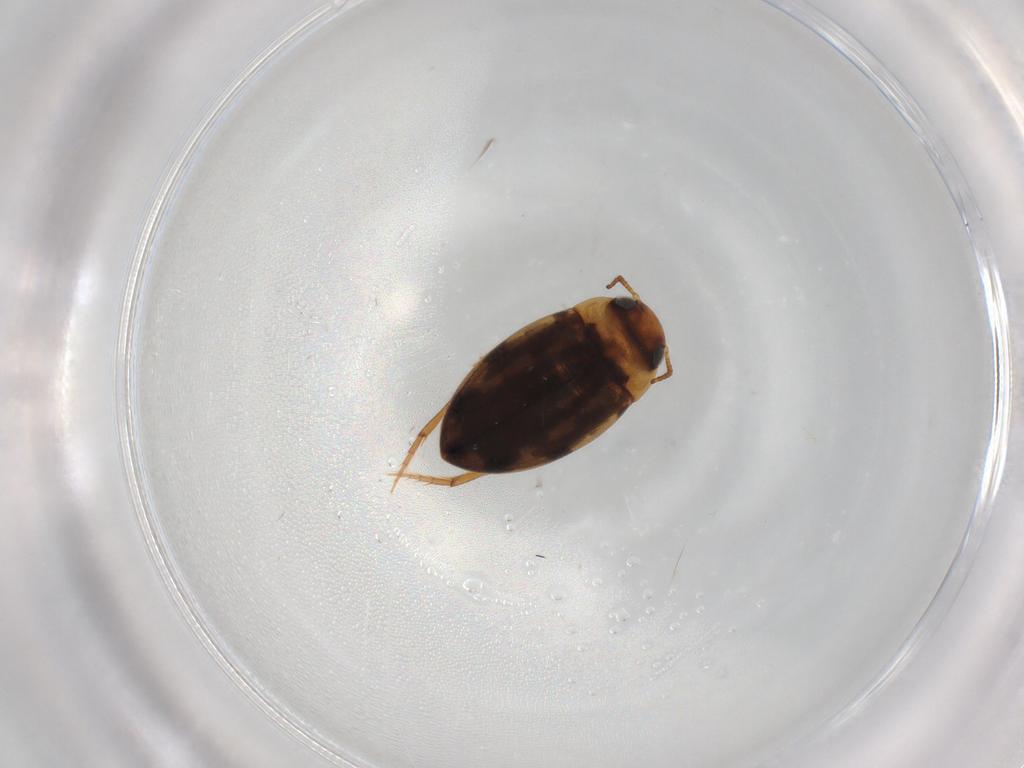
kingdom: Animalia
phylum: Arthropoda
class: Insecta
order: Coleoptera
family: Dytiscidae
